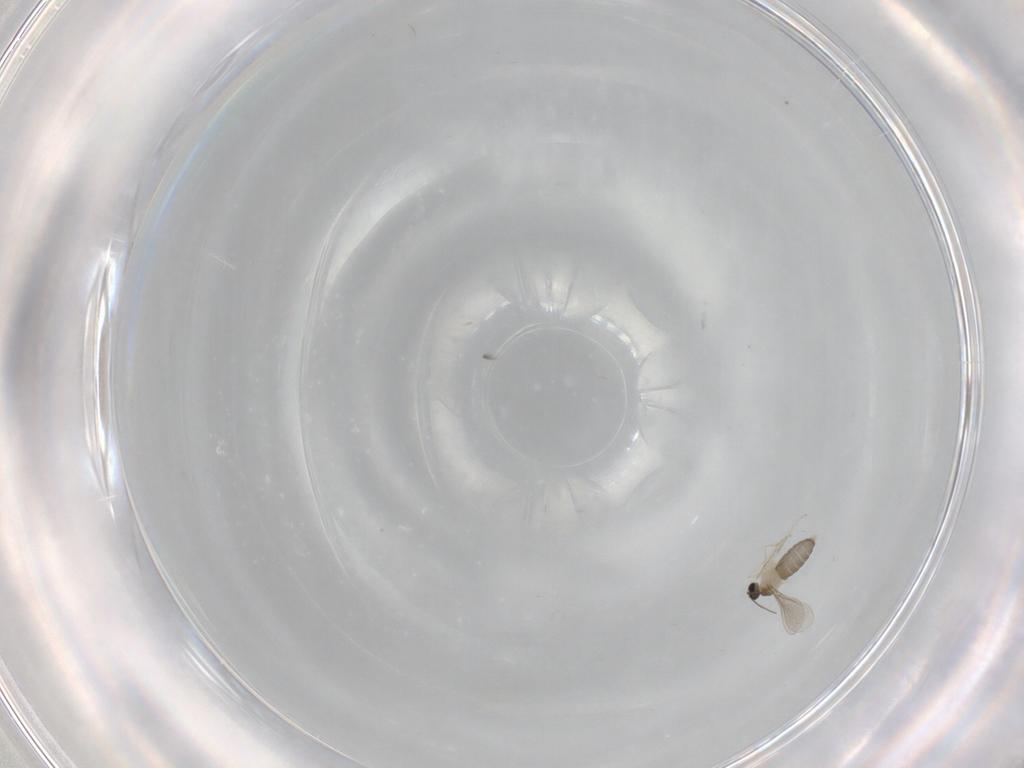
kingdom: Animalia
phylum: Arthropoda
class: Insecta
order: Diptera
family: Cecidomyiidae
